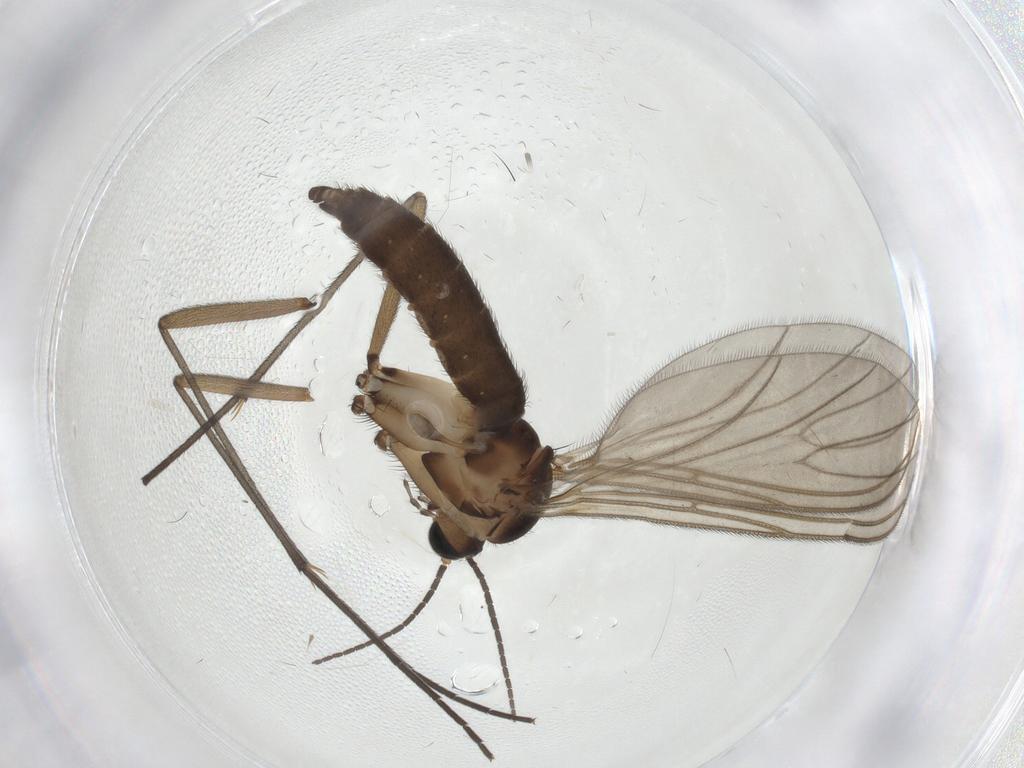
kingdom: Animalia
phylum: Arthropoda
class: Insecta
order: Diptera
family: Sciaridae
